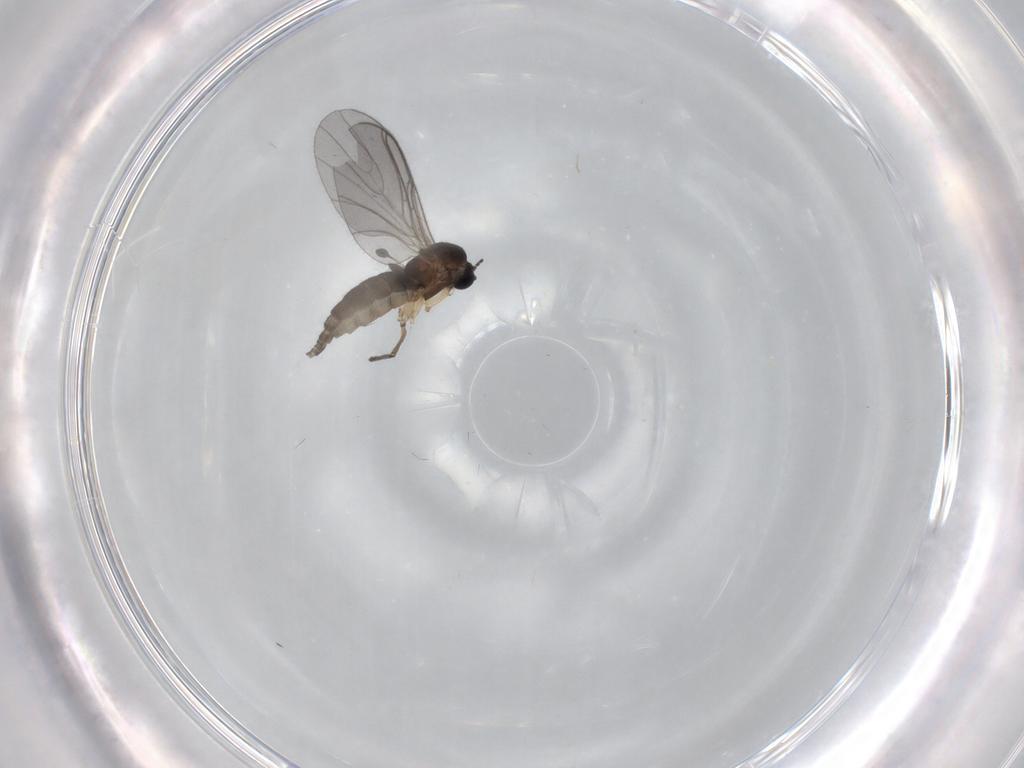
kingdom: Animalia
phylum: Arthropoda
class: Insecta
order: Diptera
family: Sciaridae
